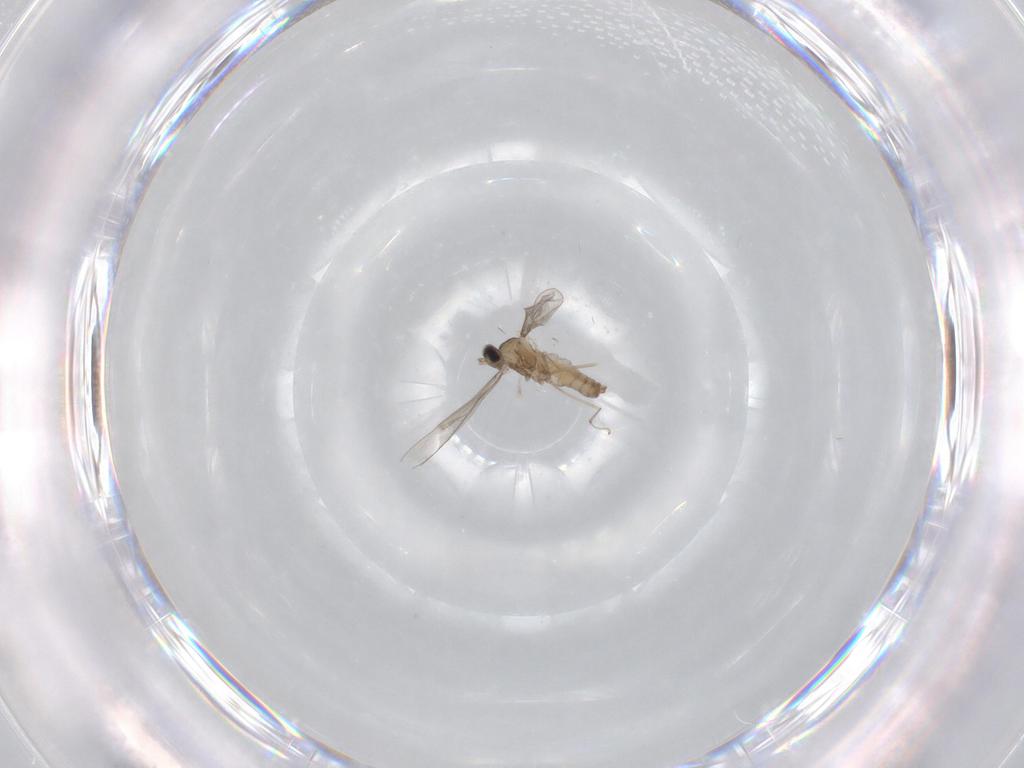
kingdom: Animalia
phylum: Arthropoda
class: Insecta
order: Diptera
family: Cecidomyiidae
